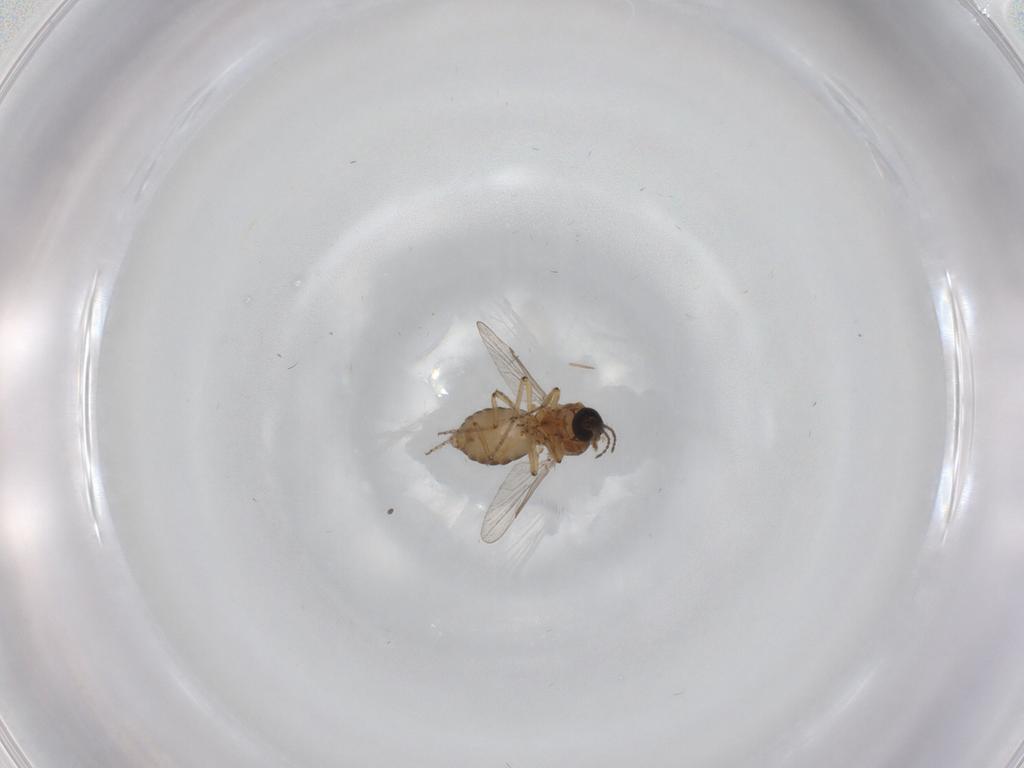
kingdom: Animalia
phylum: Arthropoda
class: Insecta
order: Diptera
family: Ceratopogonidae
